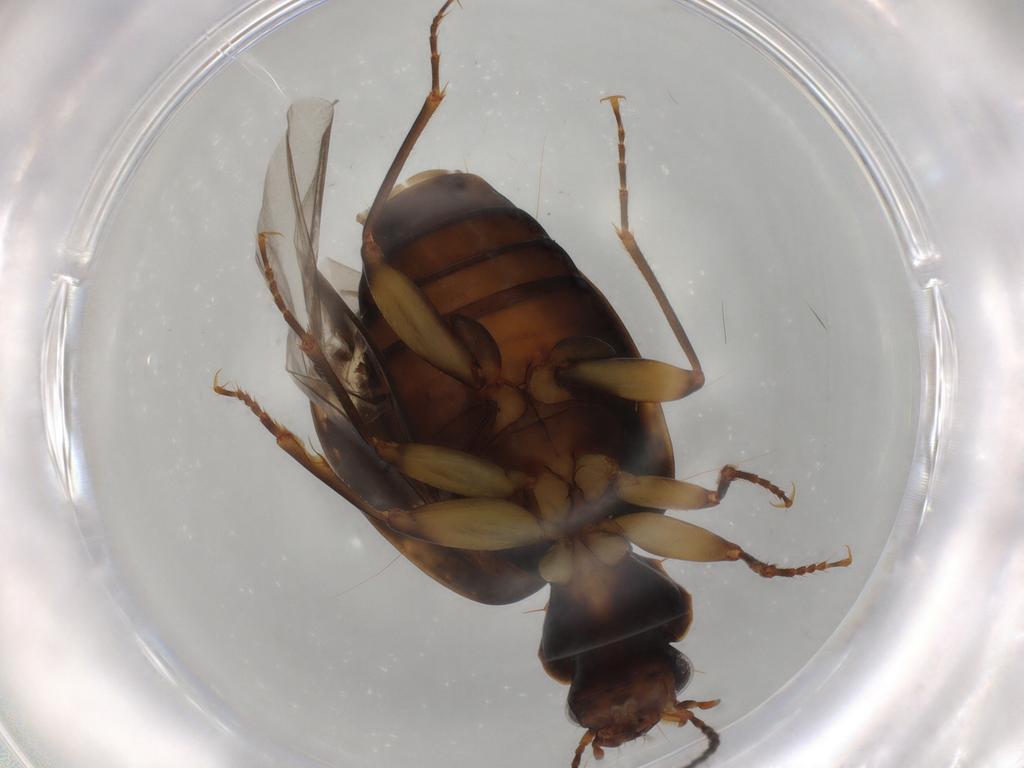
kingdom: Animalia
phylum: Arthropoda
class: Insecta
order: Coleoptera
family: Carabidae
